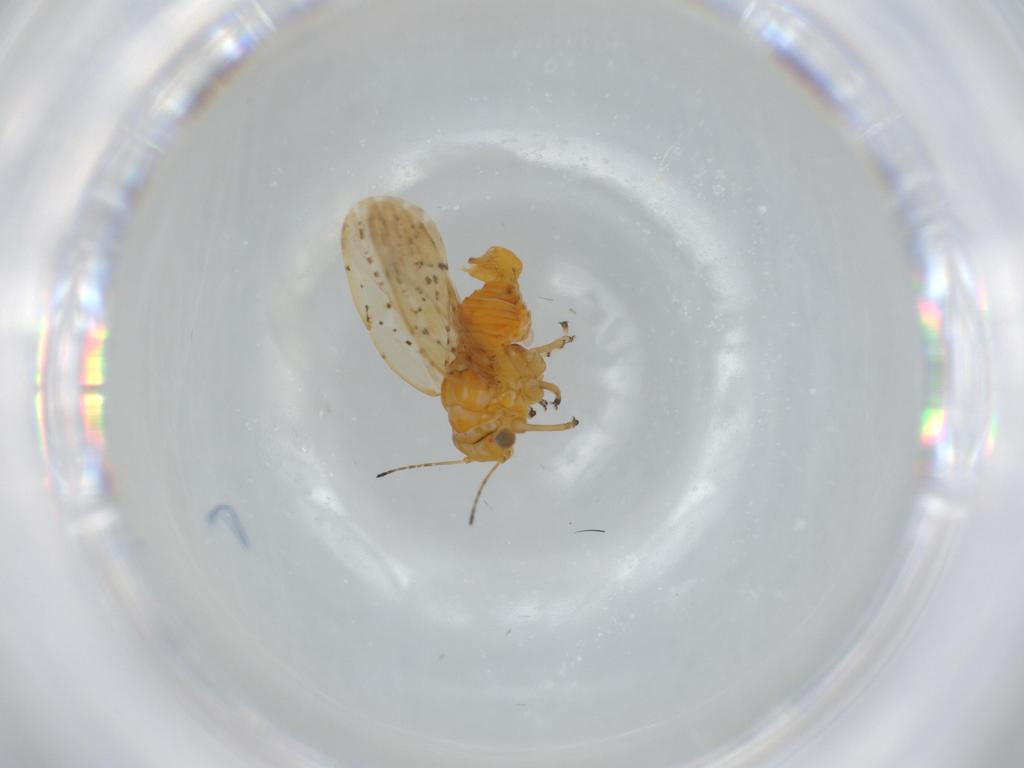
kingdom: Animalia
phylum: Arthropoda
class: Insecta
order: Hemiptera
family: Liviidae
